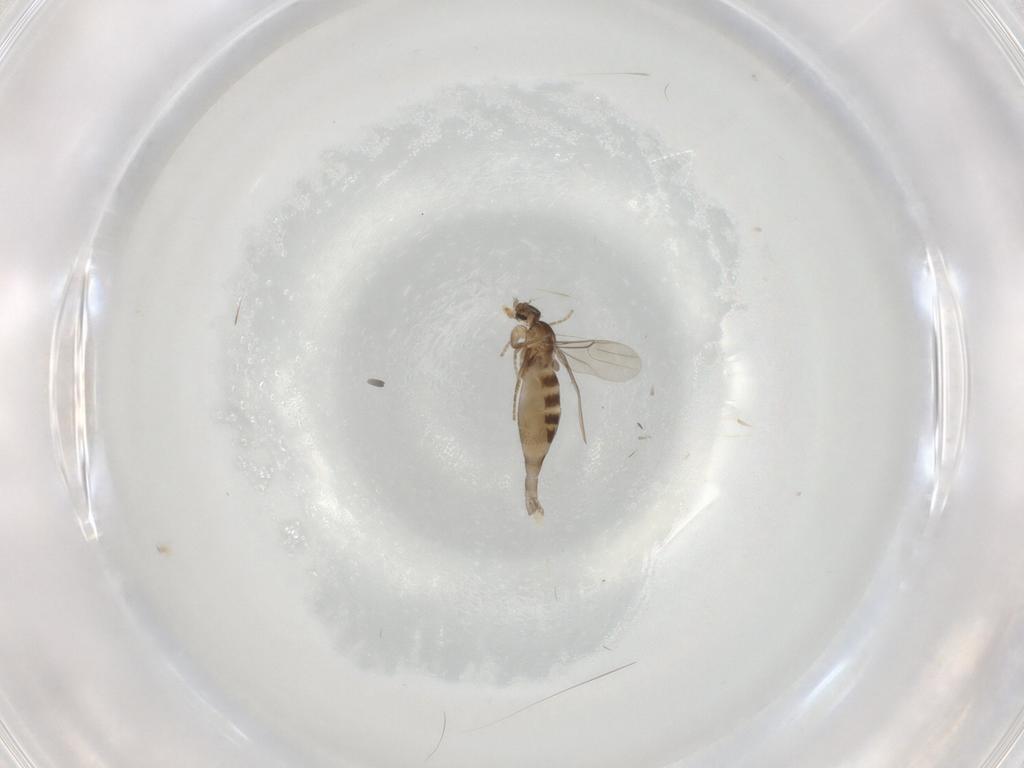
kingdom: Animalia
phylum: Arthropoda
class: Insecta
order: Diptera
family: Phoridae
